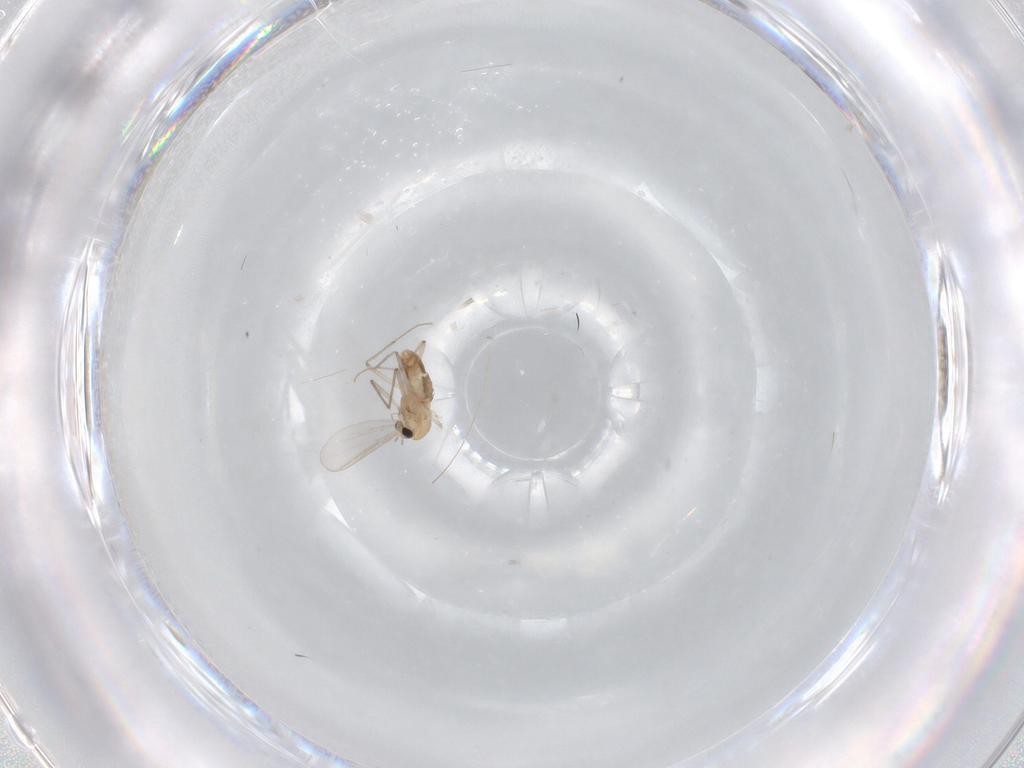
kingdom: Animalia
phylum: Arthropoda
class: Insecta
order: Diptera
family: Chironomidae
